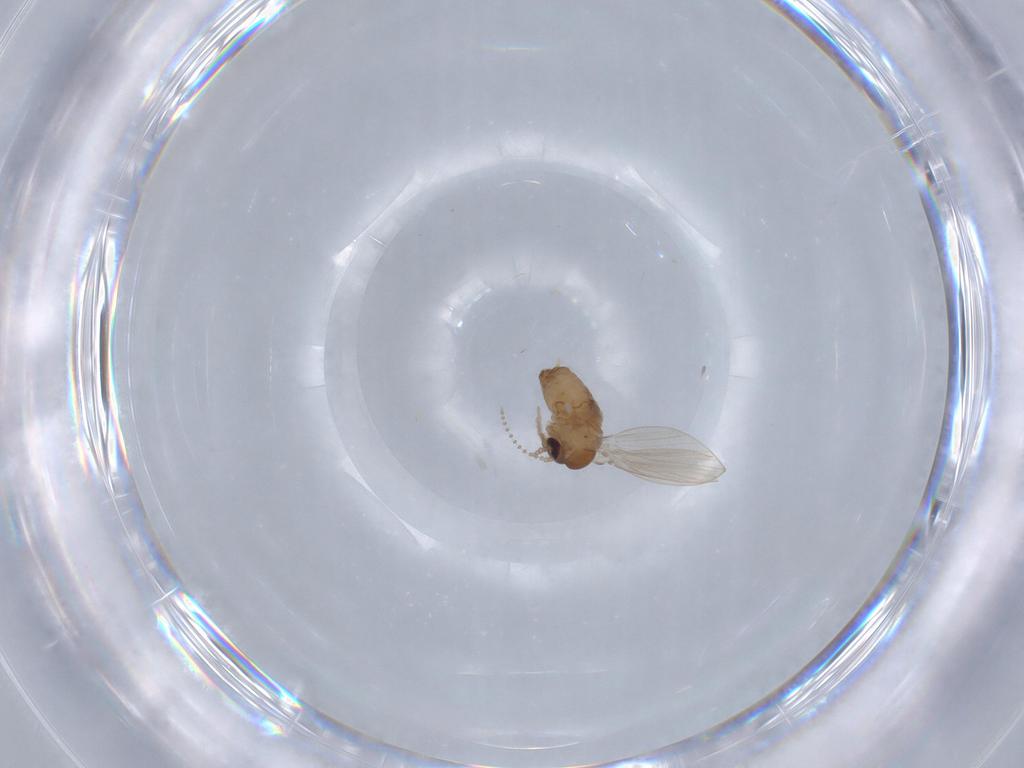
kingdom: Animalia
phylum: Arthropoda
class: Insecta
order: Diptera
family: Psychodidae
